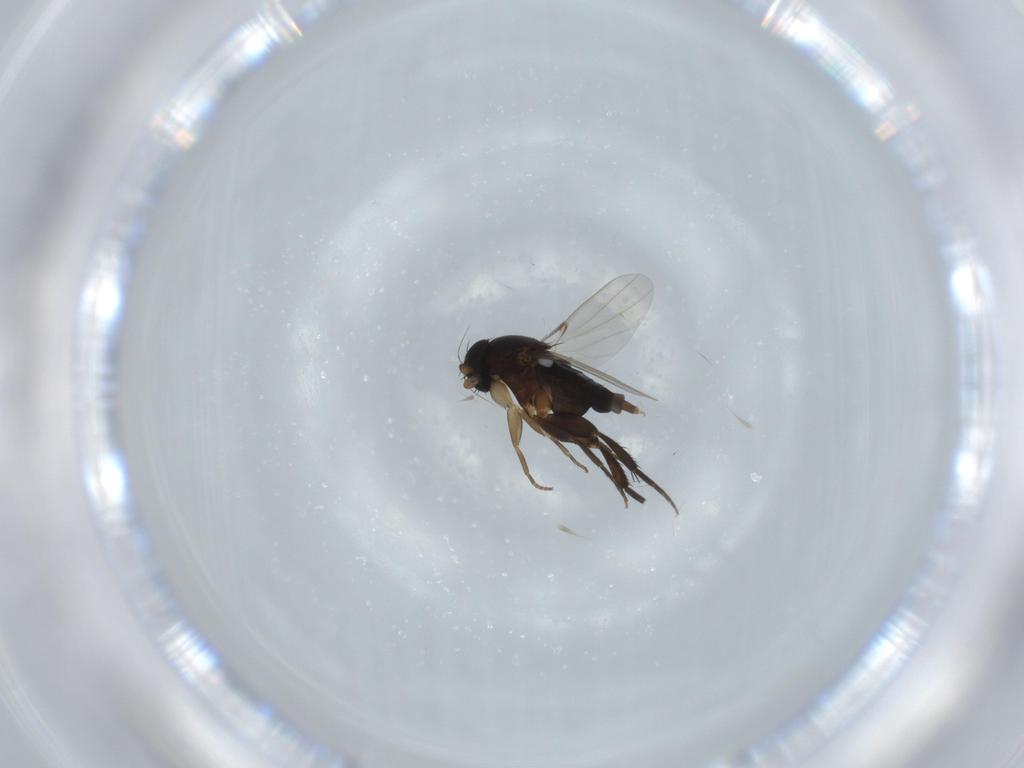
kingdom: Animalia
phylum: Arthropoda
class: Insecta
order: Diptera
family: Phoridae
